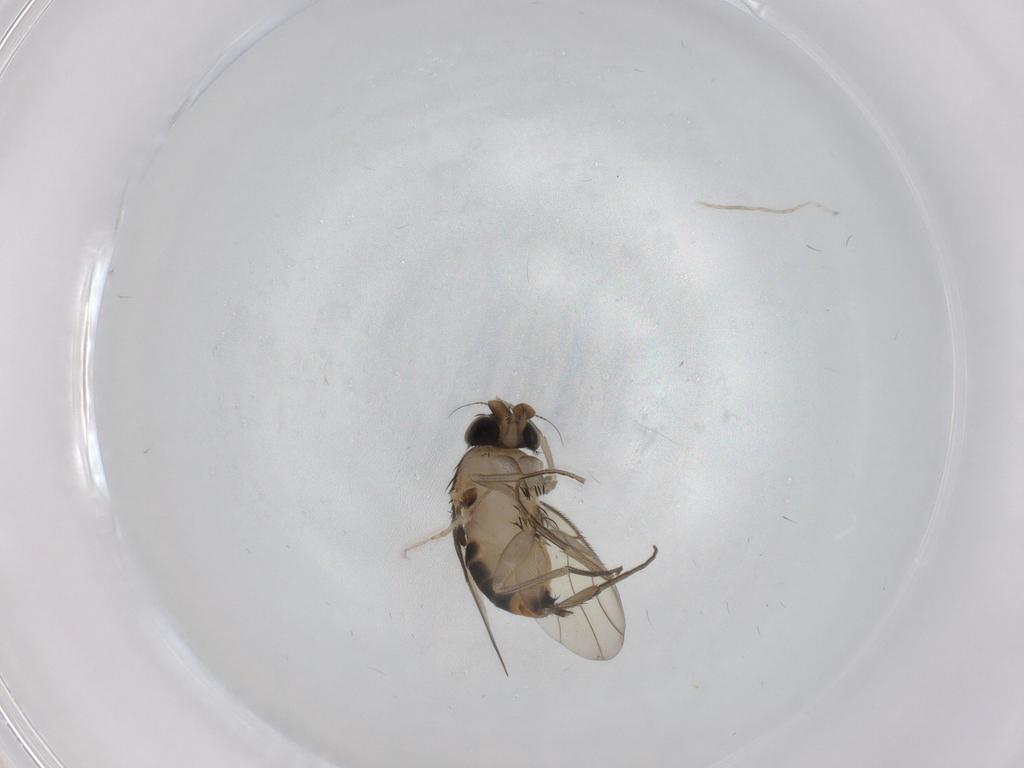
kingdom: Animalia
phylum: Arthropoda
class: Insecta
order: Diptera
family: Phoridae
